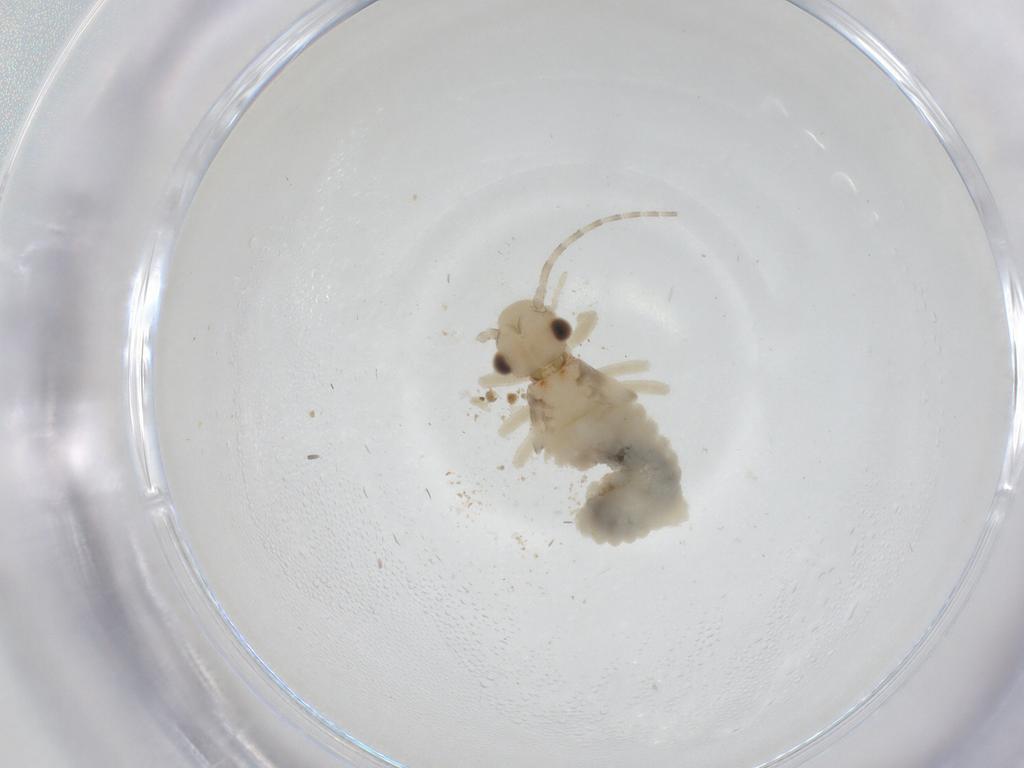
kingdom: Animalia
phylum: Arthropoda
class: Insecta
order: Psocodea
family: Amphipsocidae
